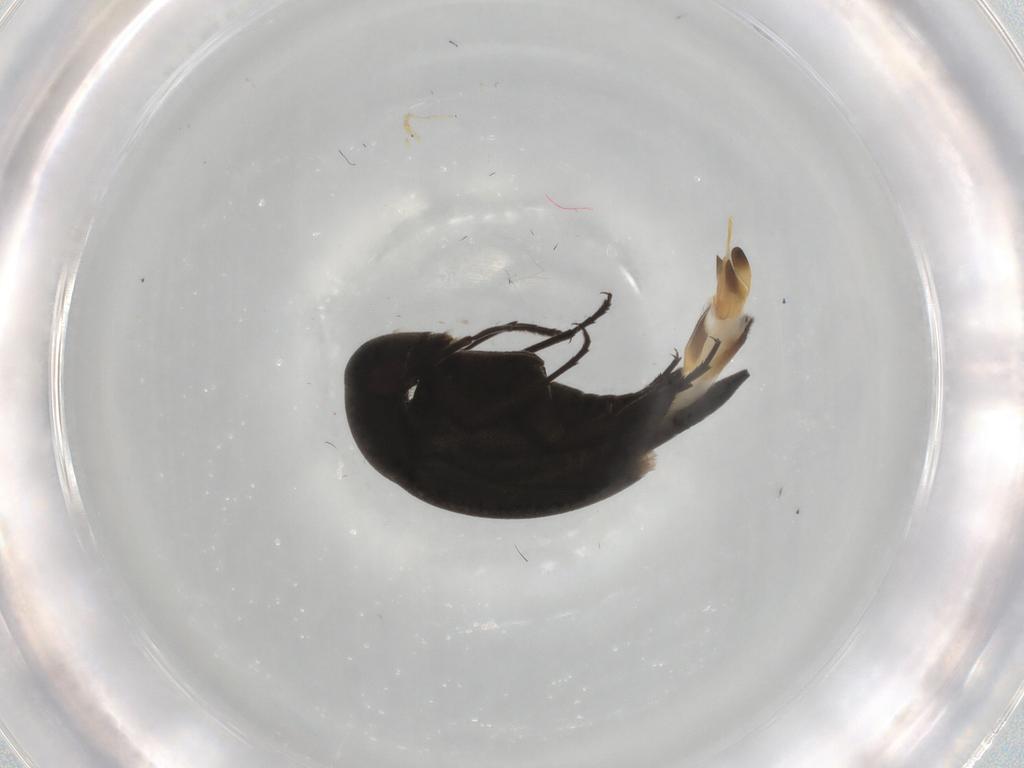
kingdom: Animalia
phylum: Arthropoda
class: Insecta
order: Coleoptera
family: Mordellidae
